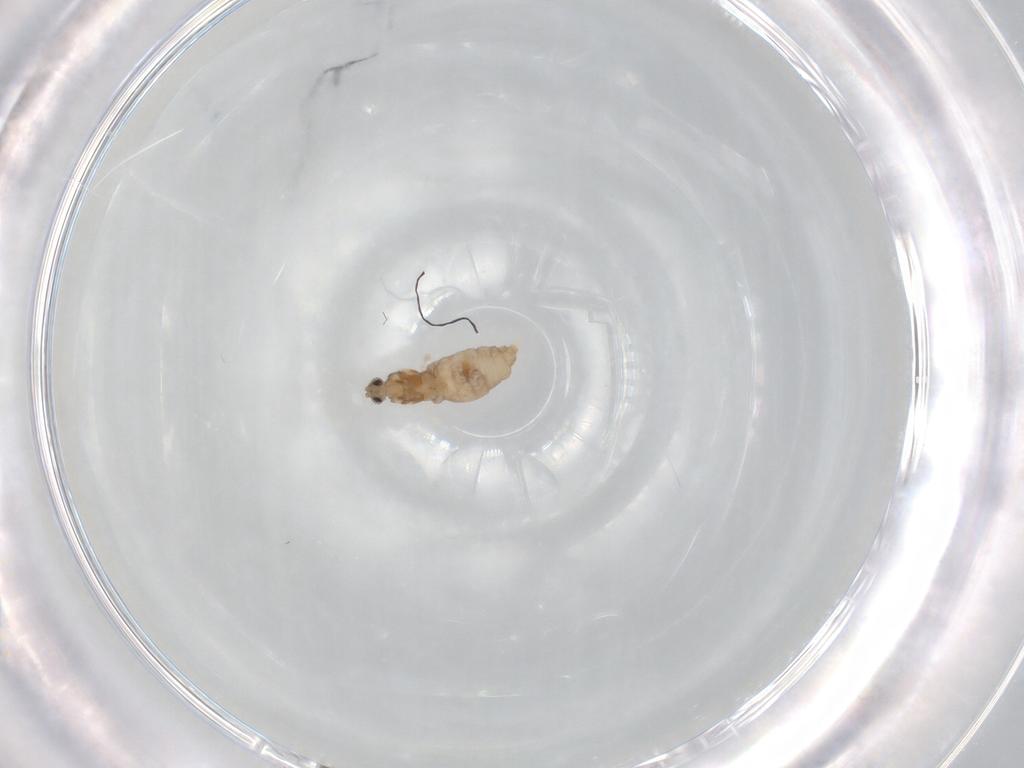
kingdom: Animalia
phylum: Arthropoda
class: Insecta
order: Diptera
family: Cecidomyiidae
